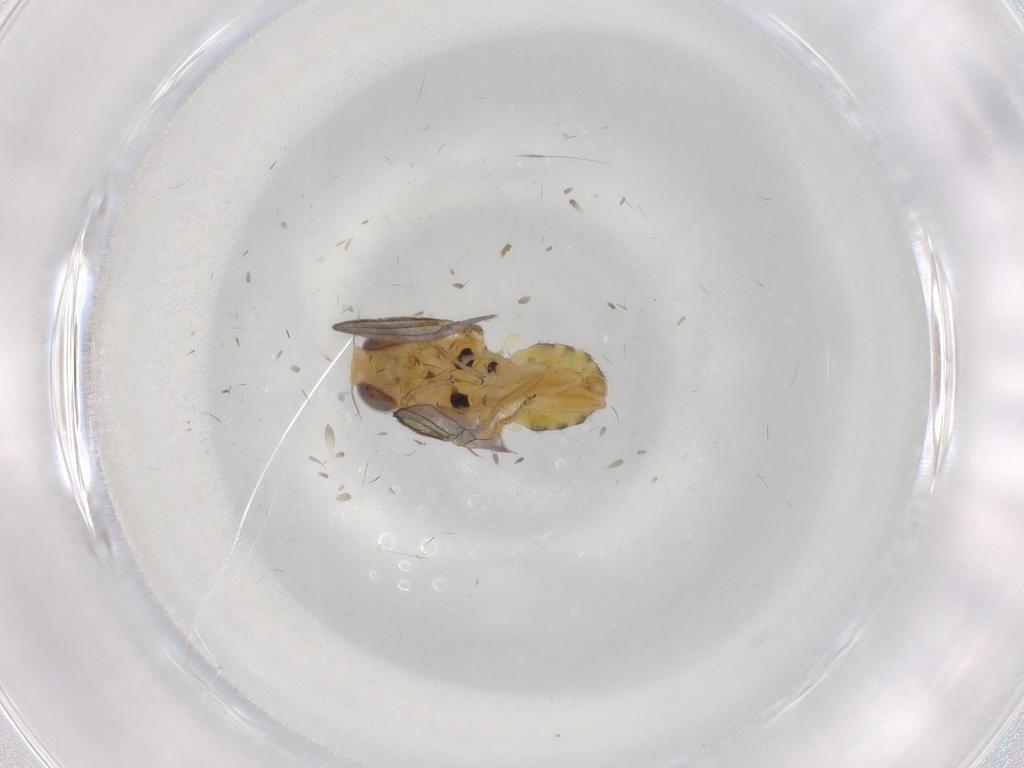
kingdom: Animalia
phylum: Arthropoda
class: Insecta
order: Diptera
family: Chloropidae
